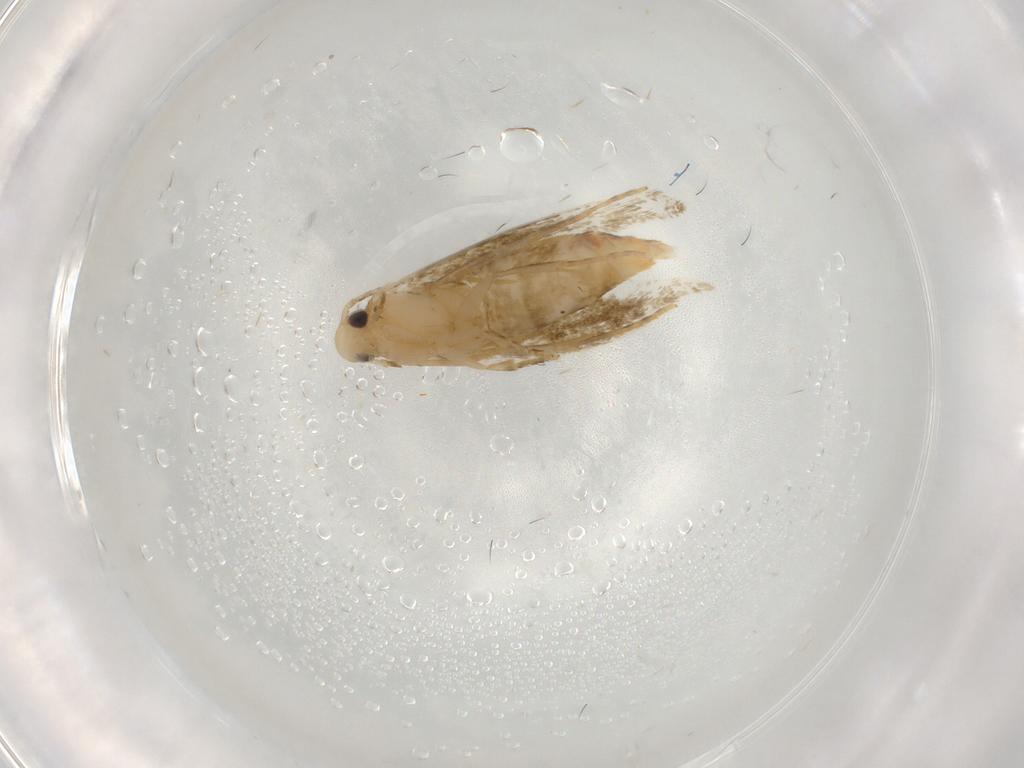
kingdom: Animalia
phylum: Arthropoda
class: Insecta
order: Lepidoptera
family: Tineidae
